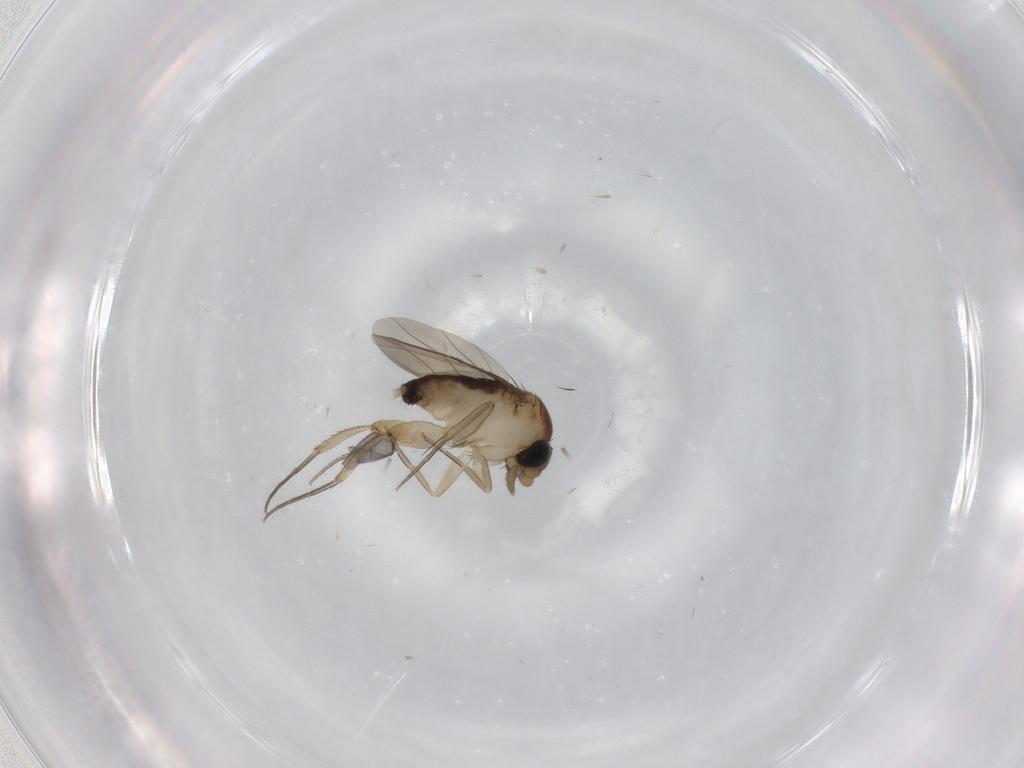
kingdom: Animalia
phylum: Arthropoda
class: Insecta
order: Diptera
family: Phoridae
